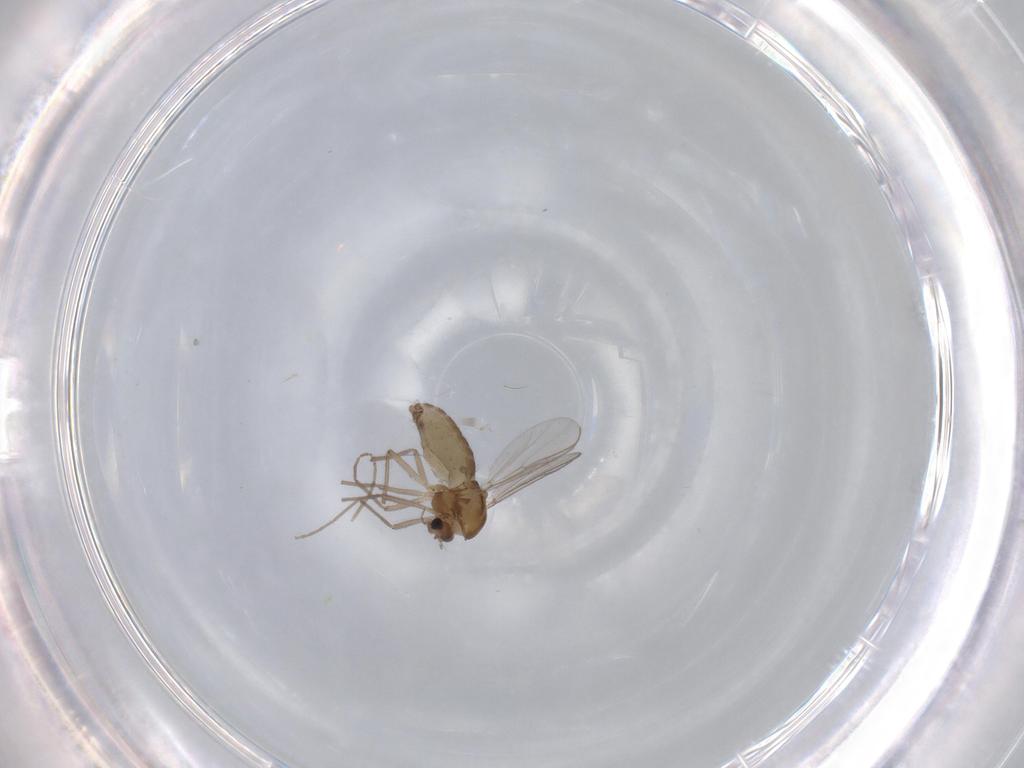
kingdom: Animalia
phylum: Arthropoda
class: Insecta
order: Diptera
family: Chironomidae
